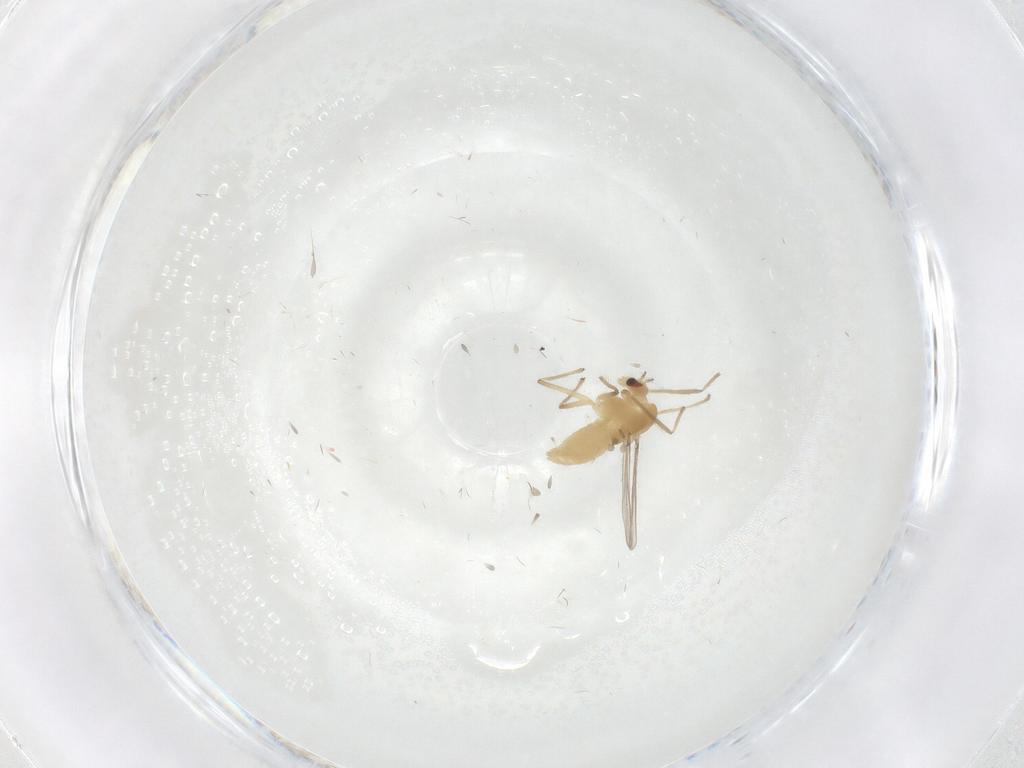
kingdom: Animalia
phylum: Arthropoda
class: Insecta
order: Diptera
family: Chironomidae
